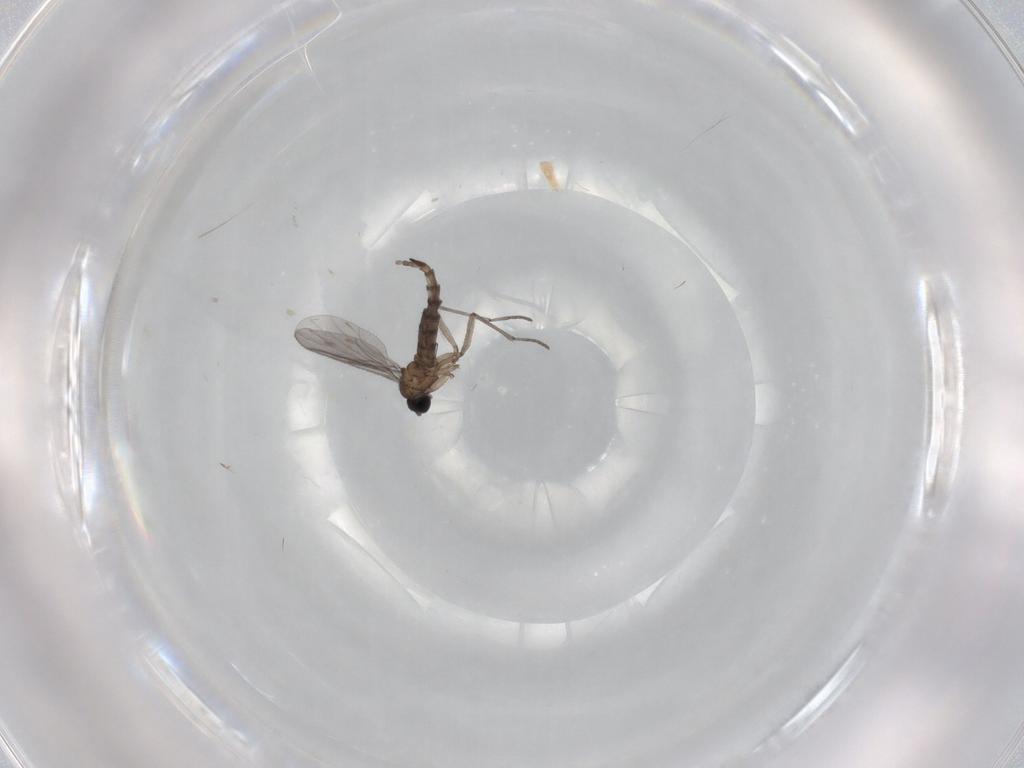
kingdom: Animalia
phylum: Arthropoda
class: Insecta
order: Diptera
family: Sciaridae
